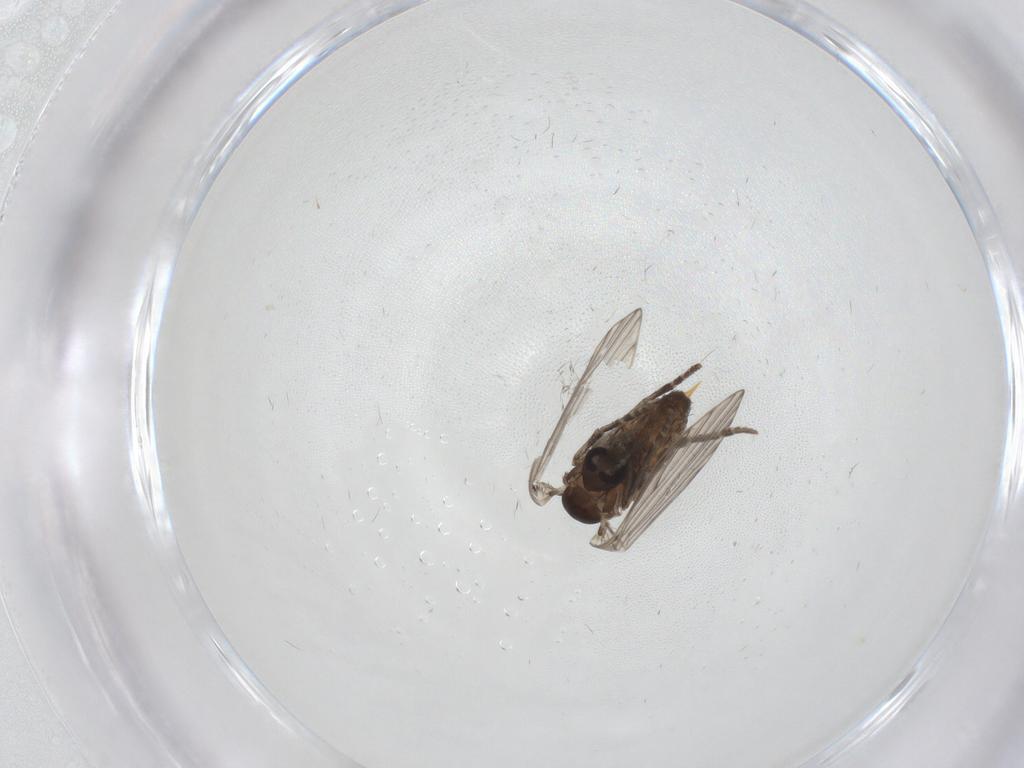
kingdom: Animalia
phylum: Arthropoda
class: Insecta
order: Diptera
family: Psychodidae
